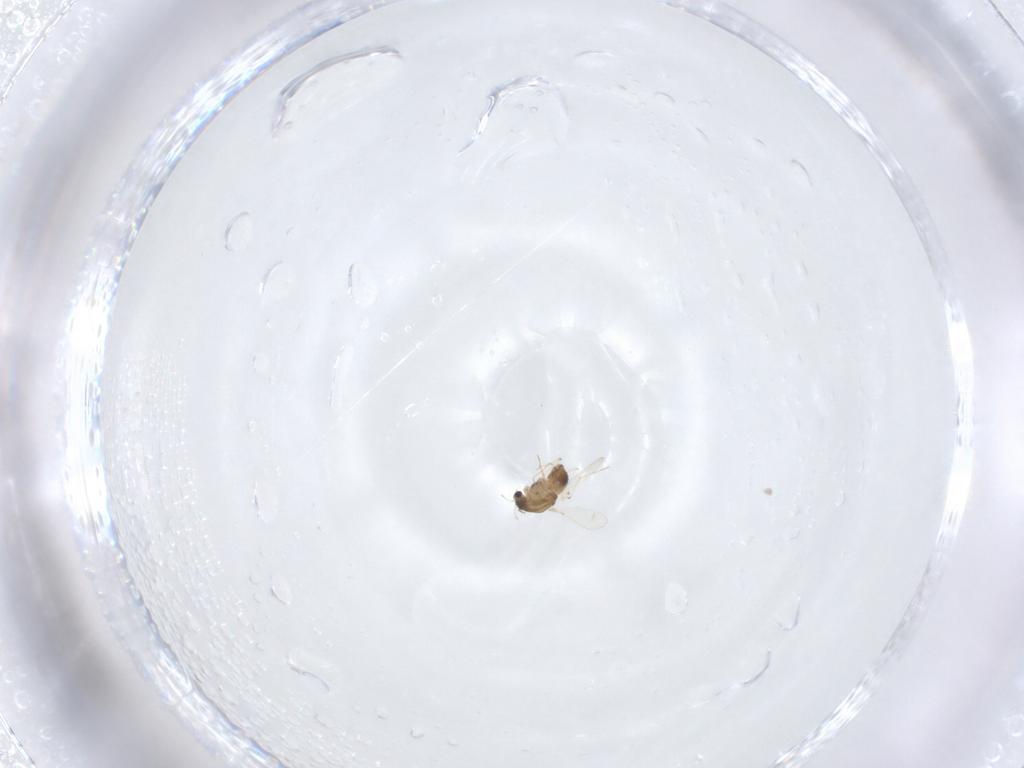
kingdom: Animalia
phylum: Arthropoda
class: Insecta
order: Diptera
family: Chironomidae
